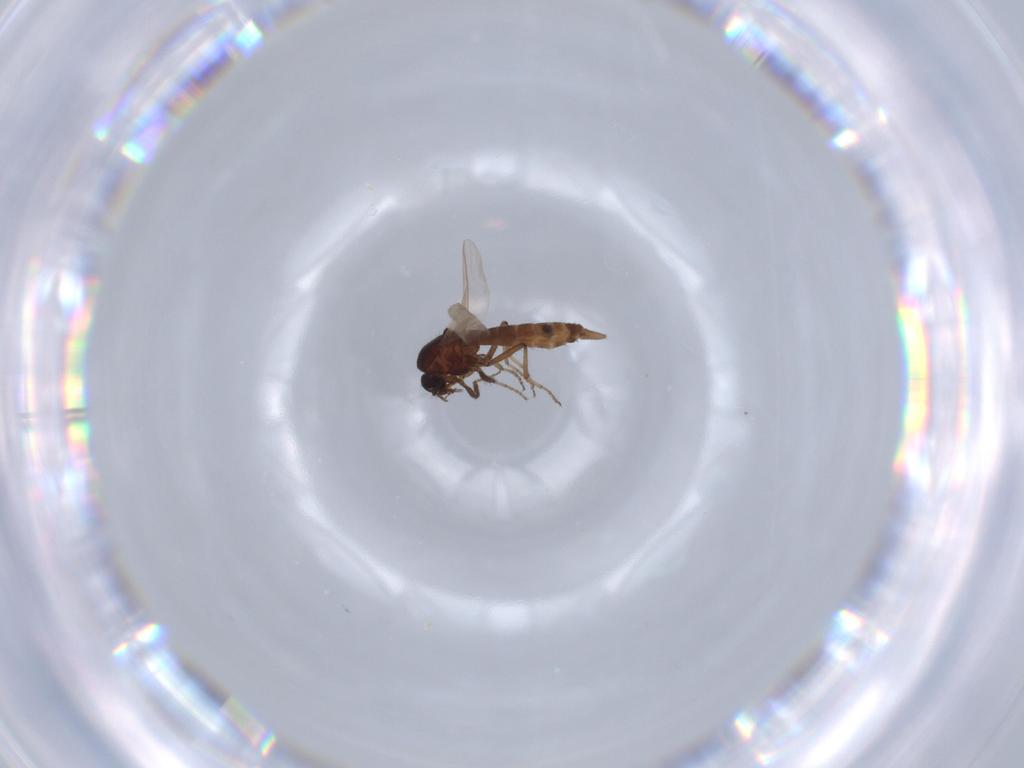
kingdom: Animalia
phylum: Arthropoda
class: Insecta
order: Diptera
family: Ceratopogonidae
